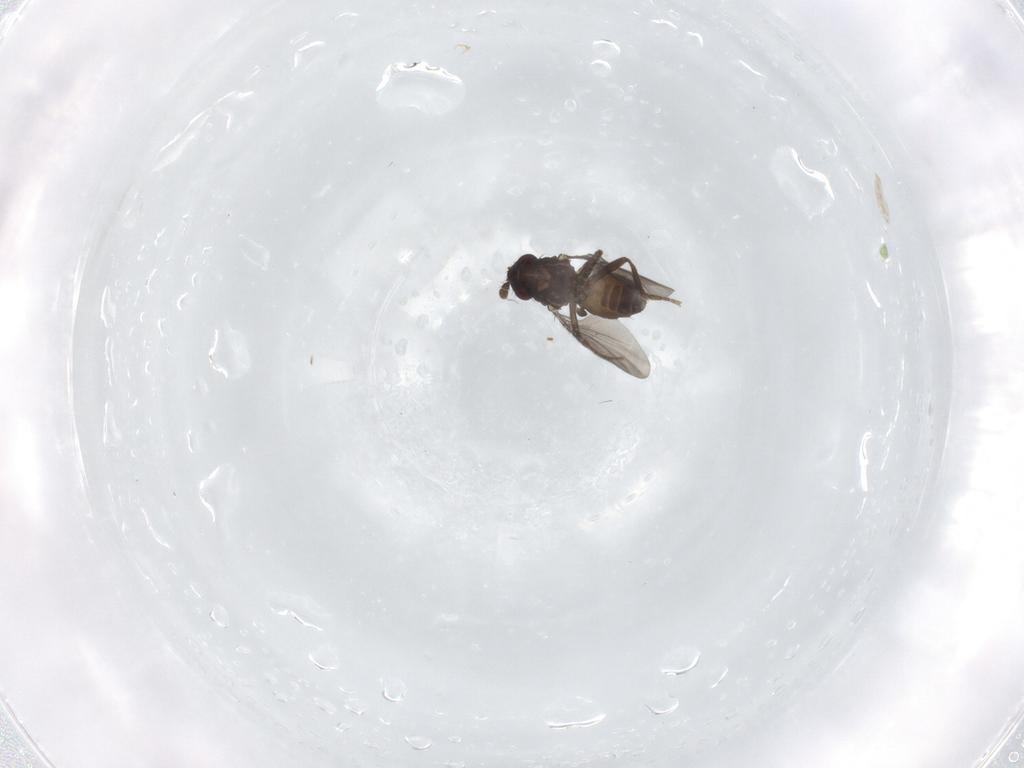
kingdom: Animalia
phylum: Arthropoda
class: Insecta
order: Diptera
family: Sphaeroceridae
